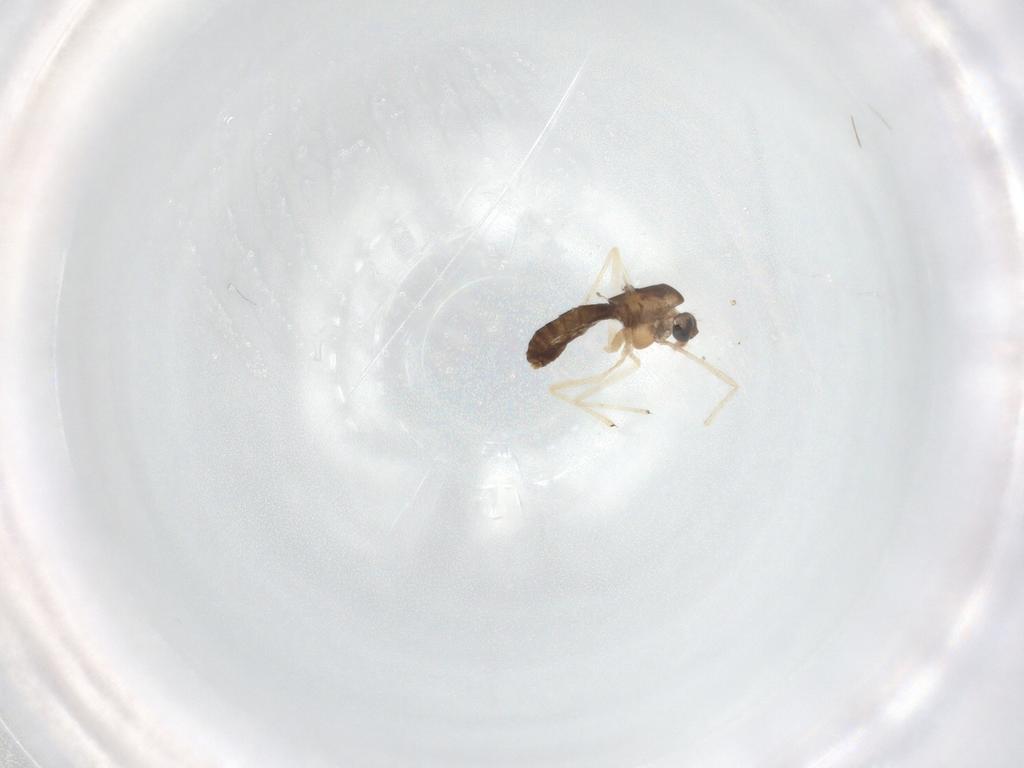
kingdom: Animalia
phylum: Arthropoda
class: Insecta
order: Diptera
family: Chironomidae
